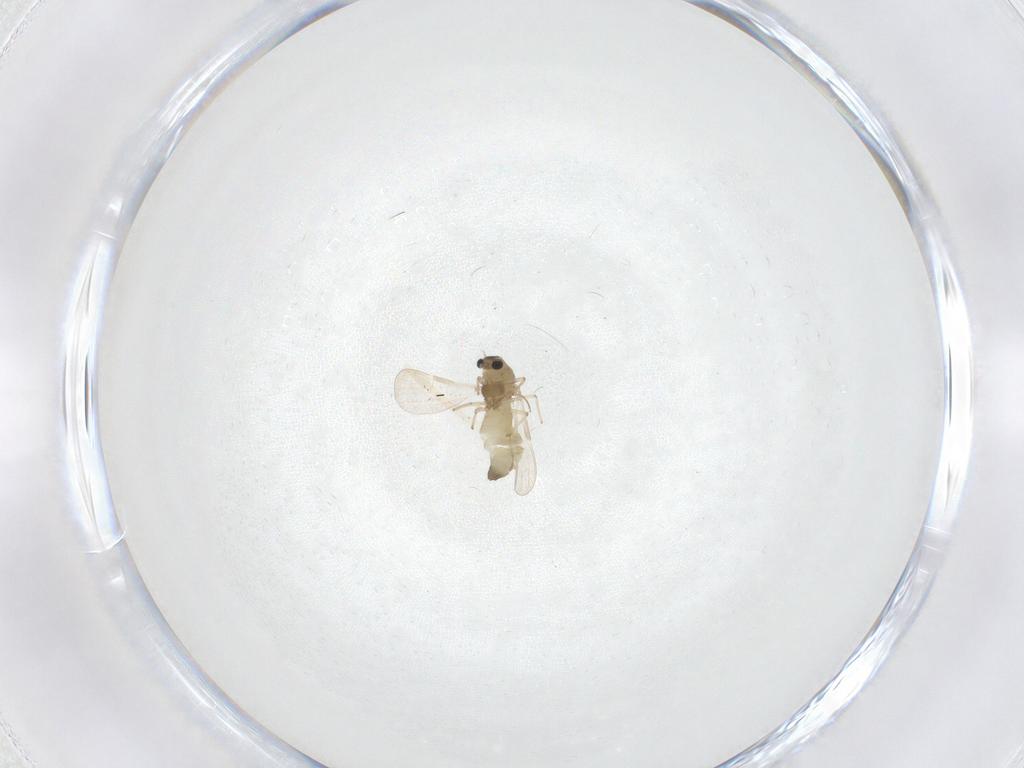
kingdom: Animalia
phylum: Arthropoda
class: Insecta
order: Diptera
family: Chironomidae
